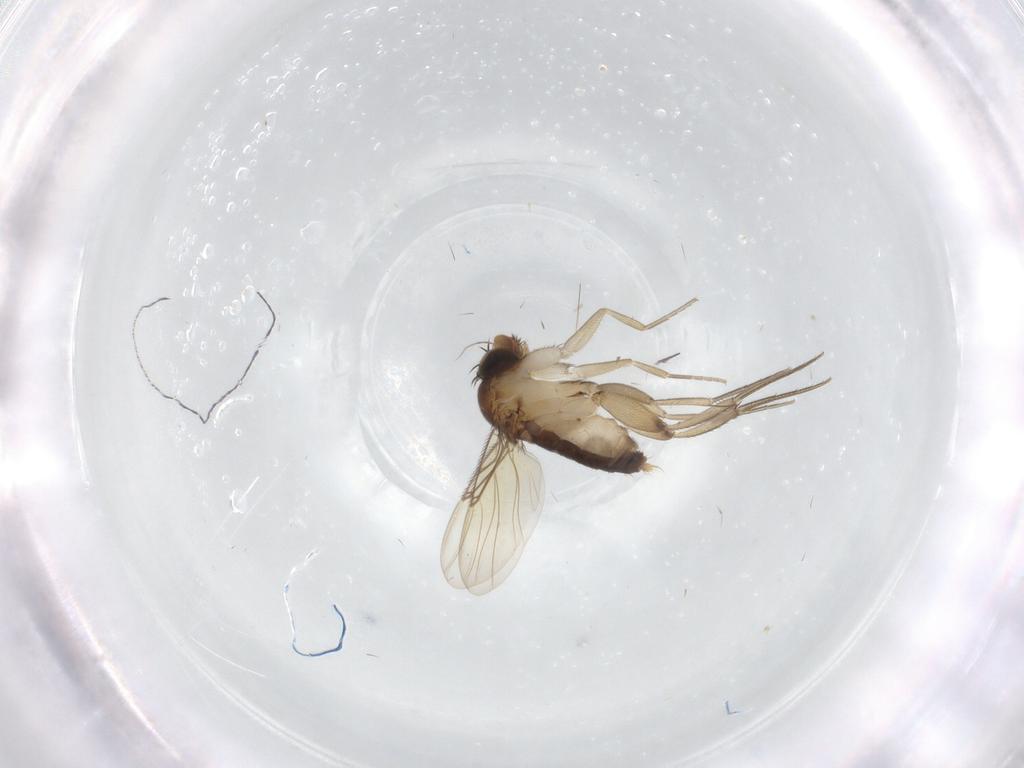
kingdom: Animalia
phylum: Arthropoda
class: Insecta
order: Diptera
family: Phoridae
